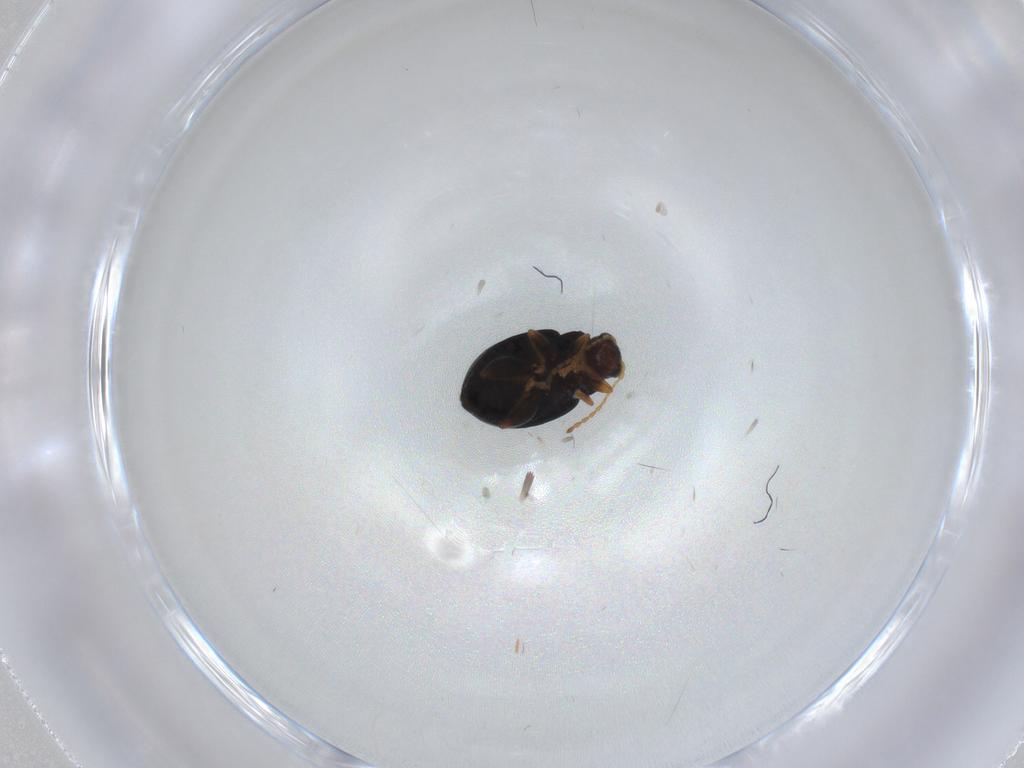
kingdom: Animalia
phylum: Arthropoda
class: Insecta
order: Coleoptera
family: Chrysomelidae
